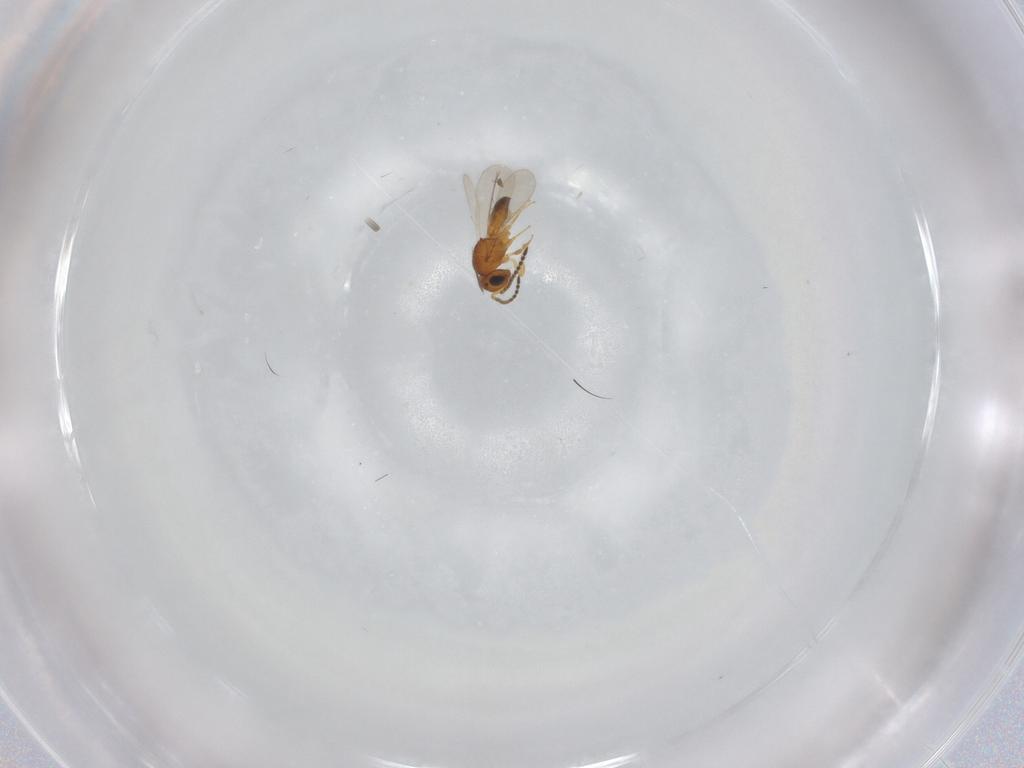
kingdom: Animalia
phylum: Arthropoda
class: Insecta
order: Hymenoptera
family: Scelionidae
